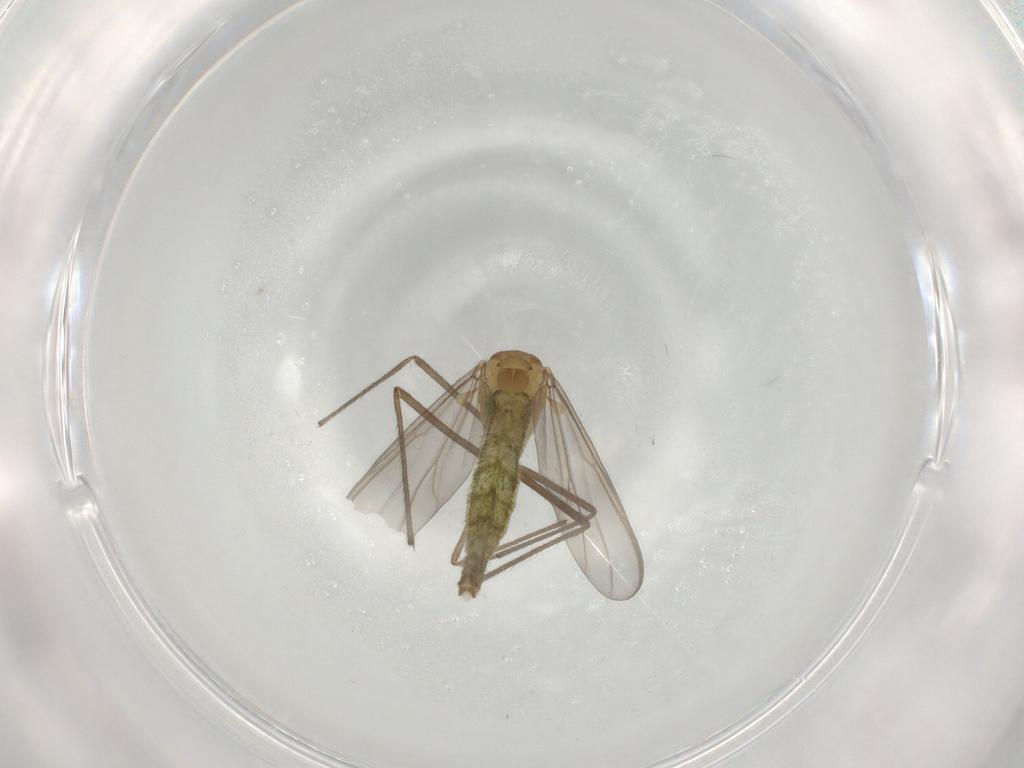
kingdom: Animalia
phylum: Arthropoda
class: Insecta
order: Diptera
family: Chironomidae
